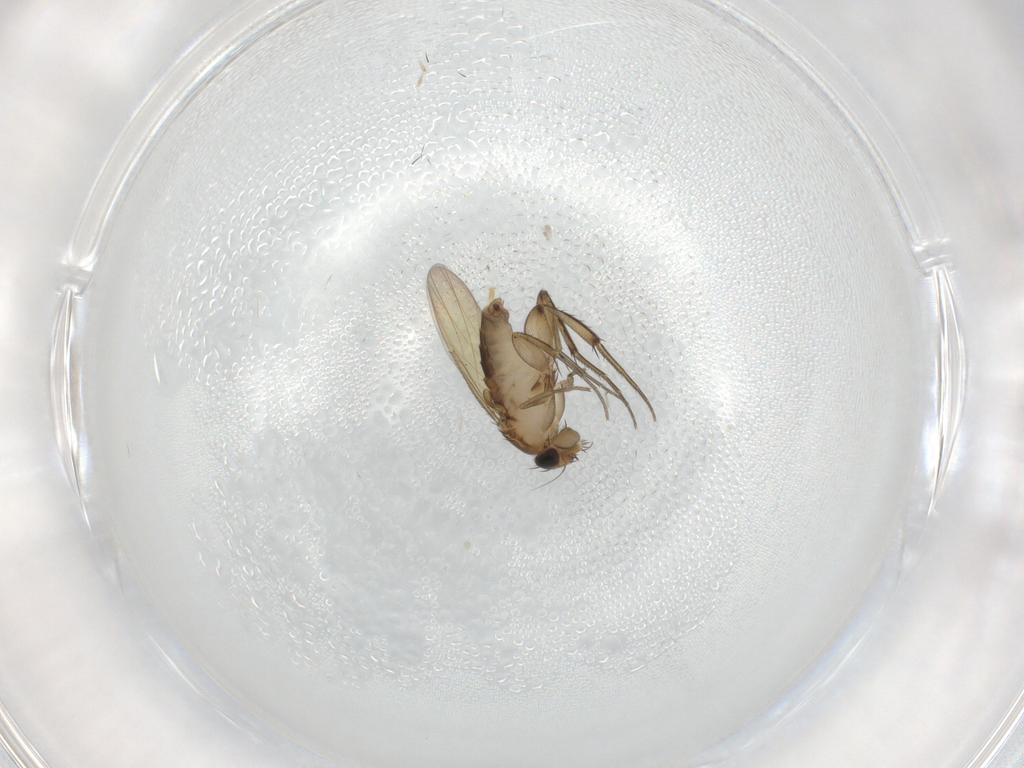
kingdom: Animalia
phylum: Arthropoda
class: Insecta
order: Diptera
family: Phoridae
